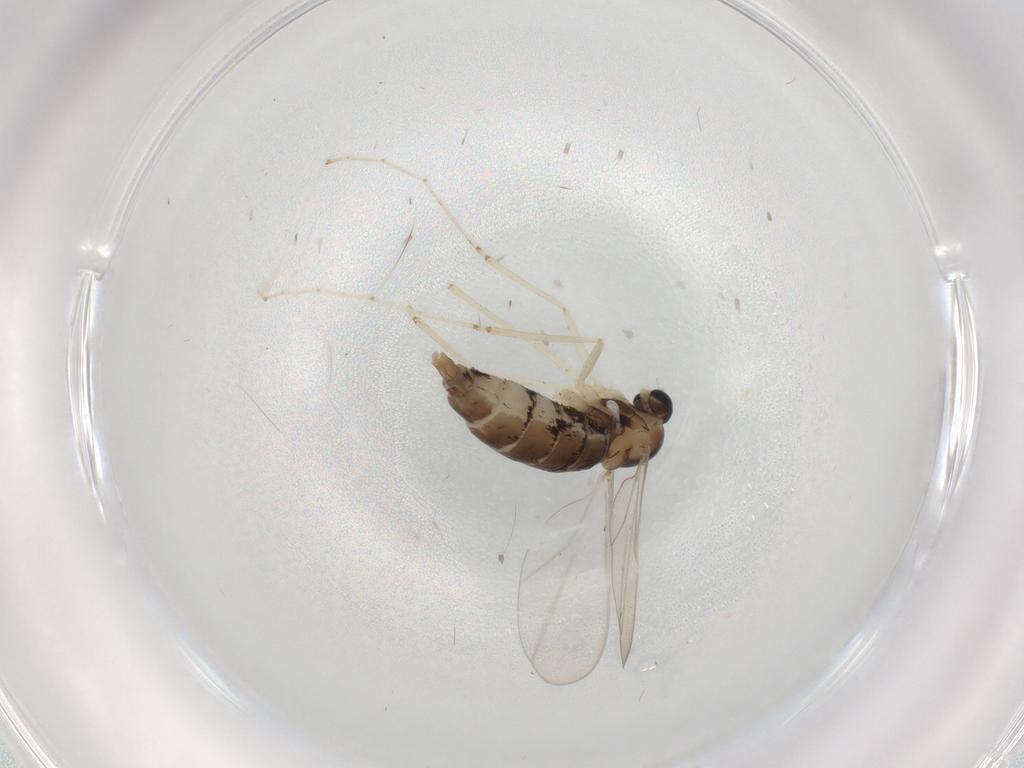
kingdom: Animalia
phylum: Arthropoda
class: Insecta
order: Diptera
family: Cecidomyiidae
